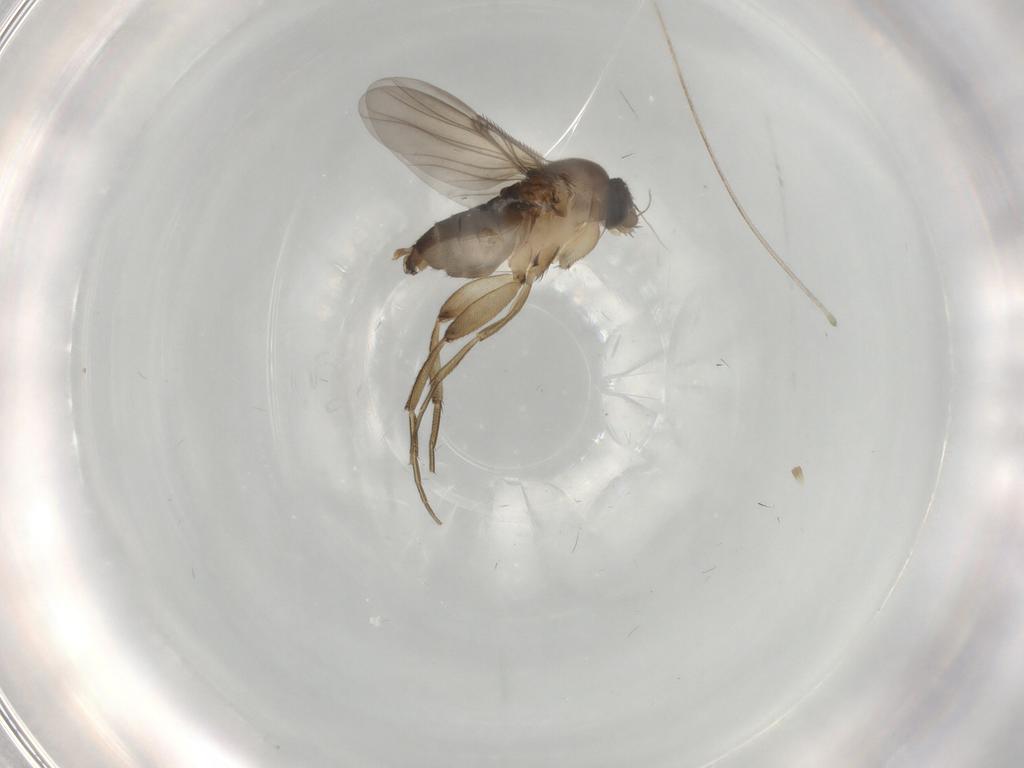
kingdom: Animalia
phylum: Arthropoda
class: Insecta
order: Diptera
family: Phoridae
